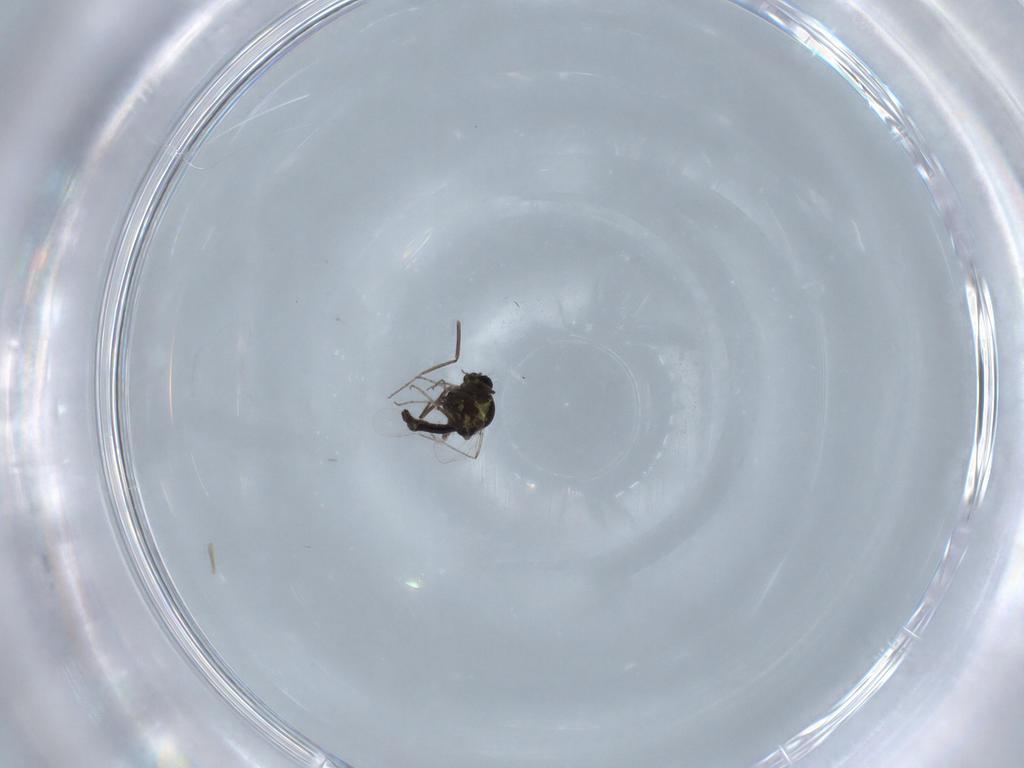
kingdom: Animalia
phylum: Arthropoda
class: Insecta
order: Diptera
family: Ceratopogonidae
